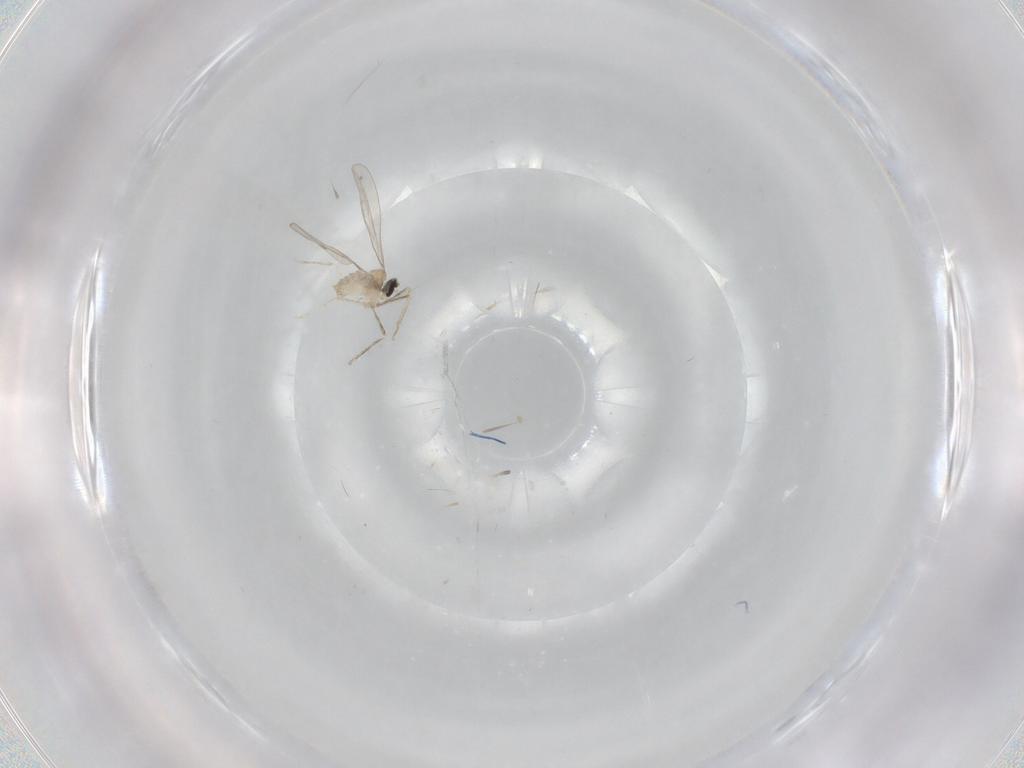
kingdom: Animalia
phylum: Arthropoda
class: Insecta
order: Diptera
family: Cecidomyiidae
